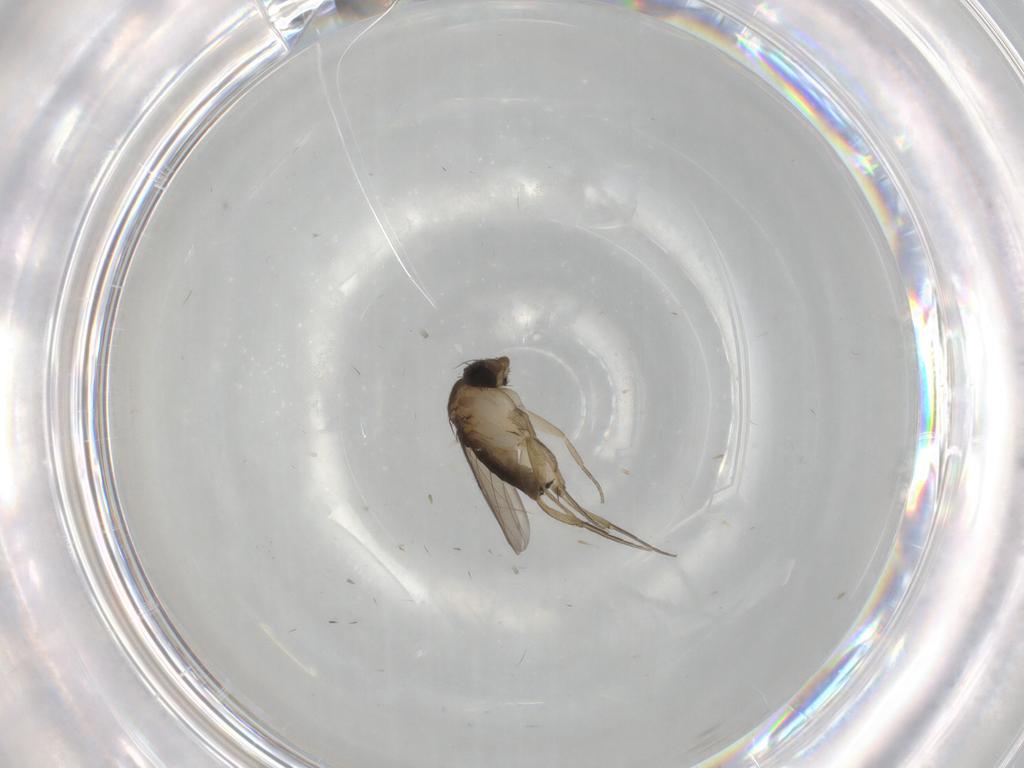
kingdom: Animalia
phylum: Arthropoda
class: Insecta
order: Diptera
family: Phoridae
